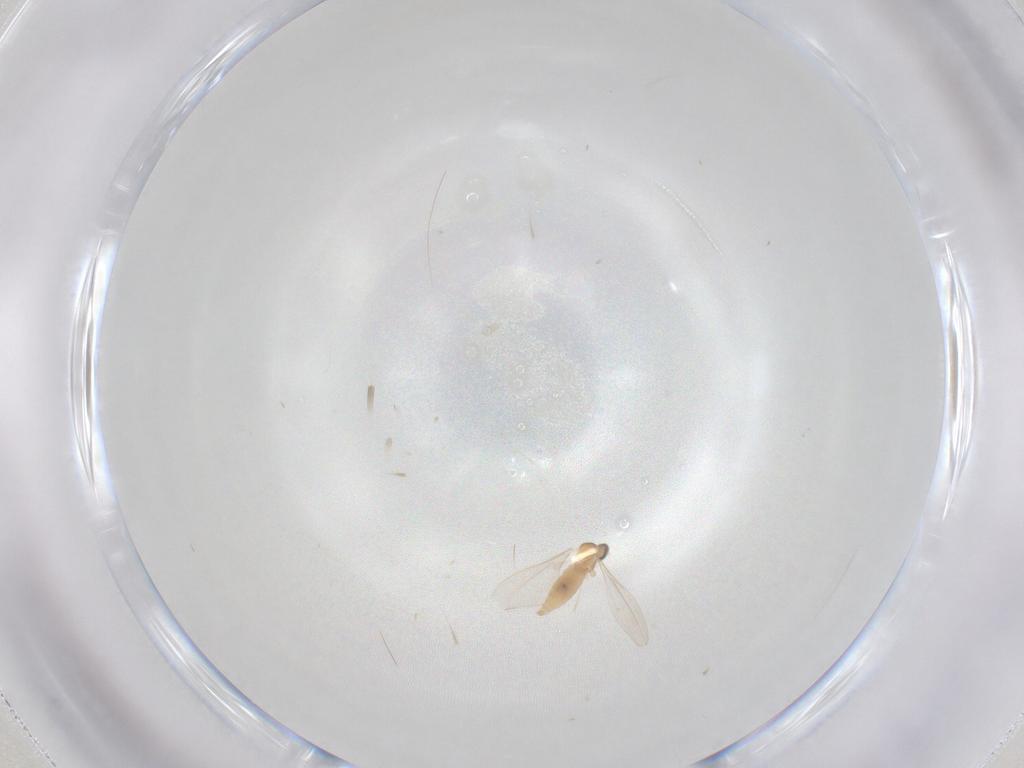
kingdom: Animalia
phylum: Arthropoda
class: Insecta
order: Diptera
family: Cecidomyiidae
